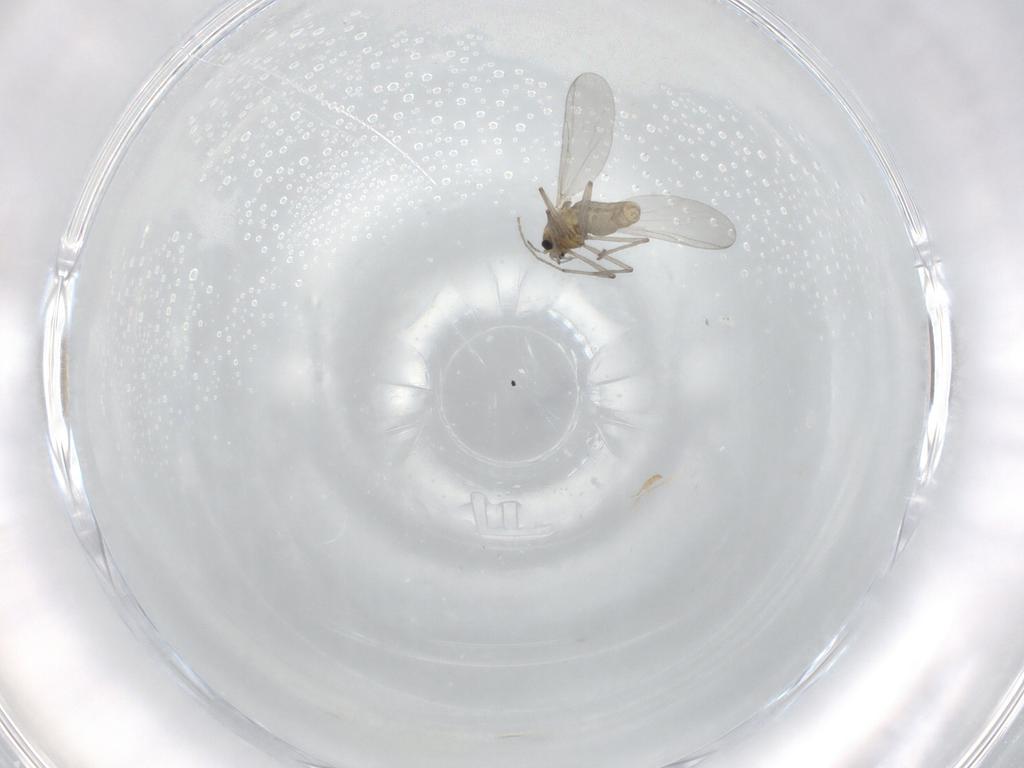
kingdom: Animalia
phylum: Arthropoda
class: Insecta
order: Diptera
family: Chironomidae
